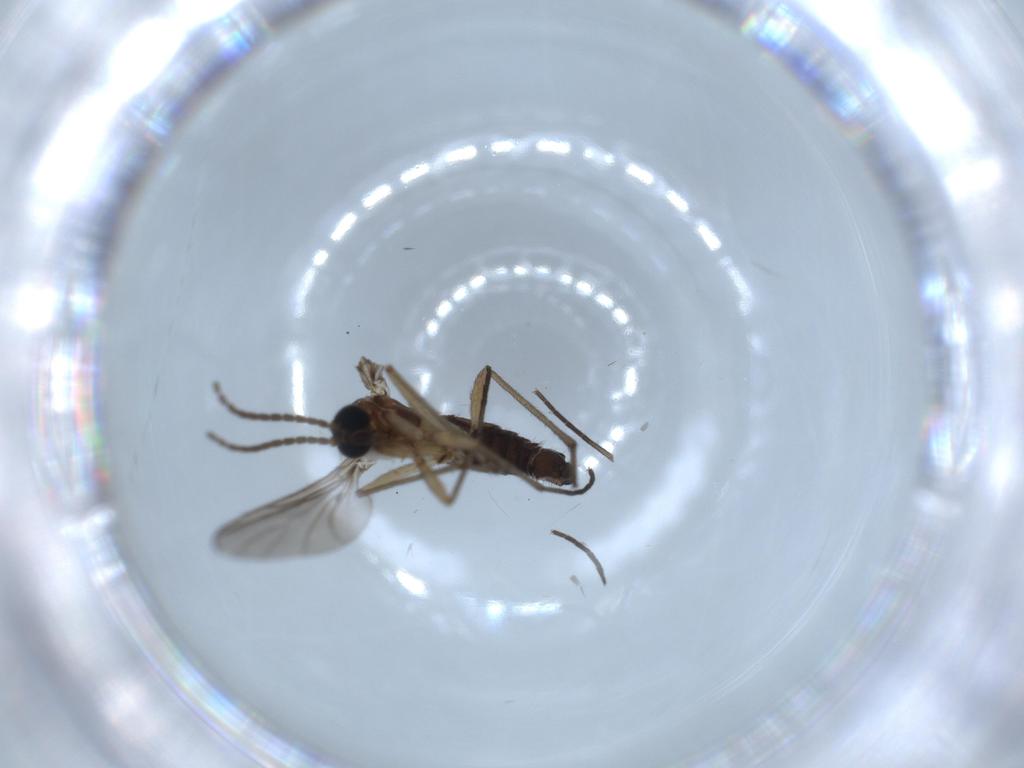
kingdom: Animalia
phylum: Arthropoda
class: Insecta
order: Diptera
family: Sciaridae
